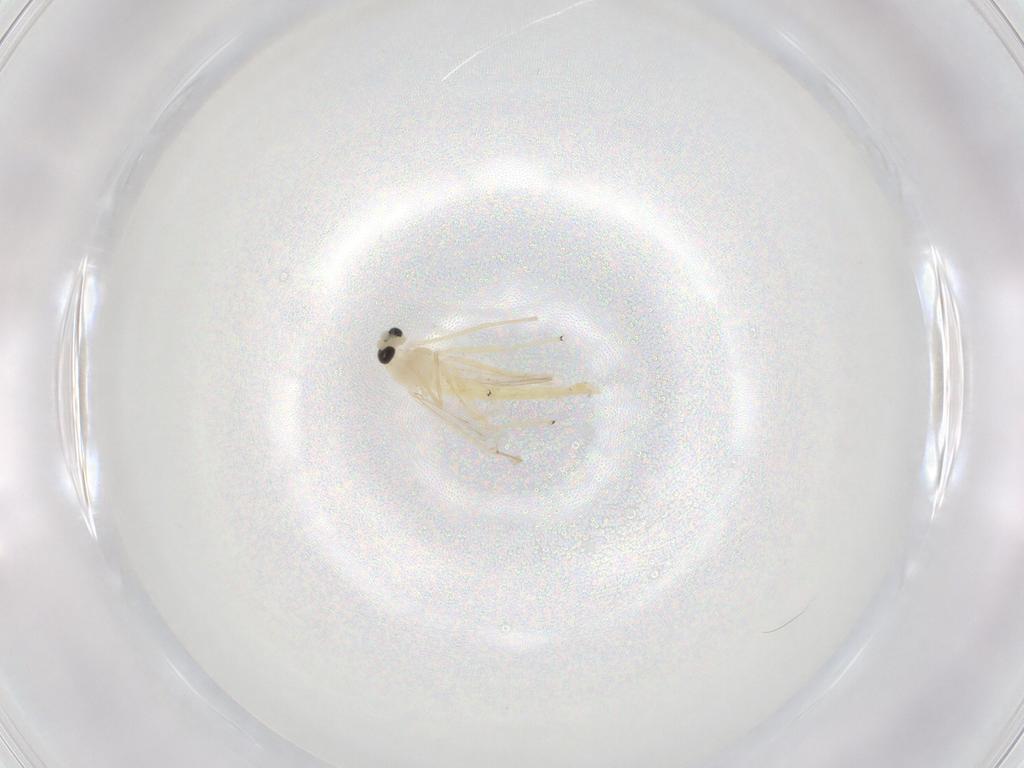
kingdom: Animalia
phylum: Arthropoda
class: Insecta
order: Diptera
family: Chironomidae
